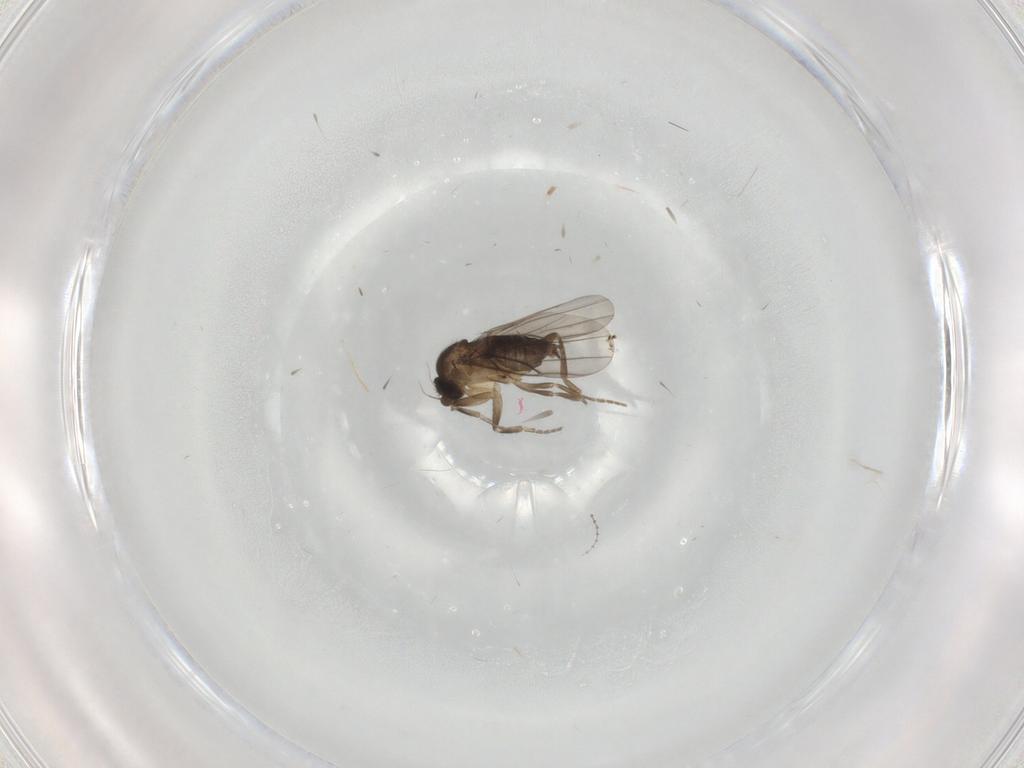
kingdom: Animalia
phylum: Arthropoda
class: Insecta
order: Diptera
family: Phoridae
